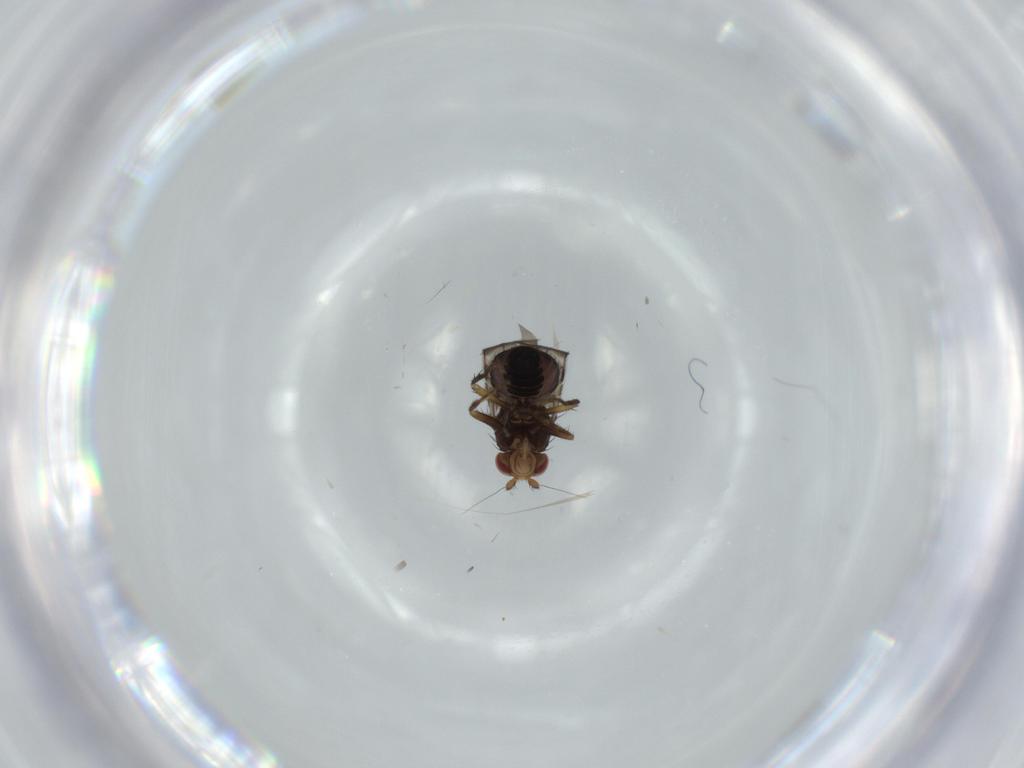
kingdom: Animalia
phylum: Arthropoda
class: Insecta
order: Diptera
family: Sphaeroceridae
